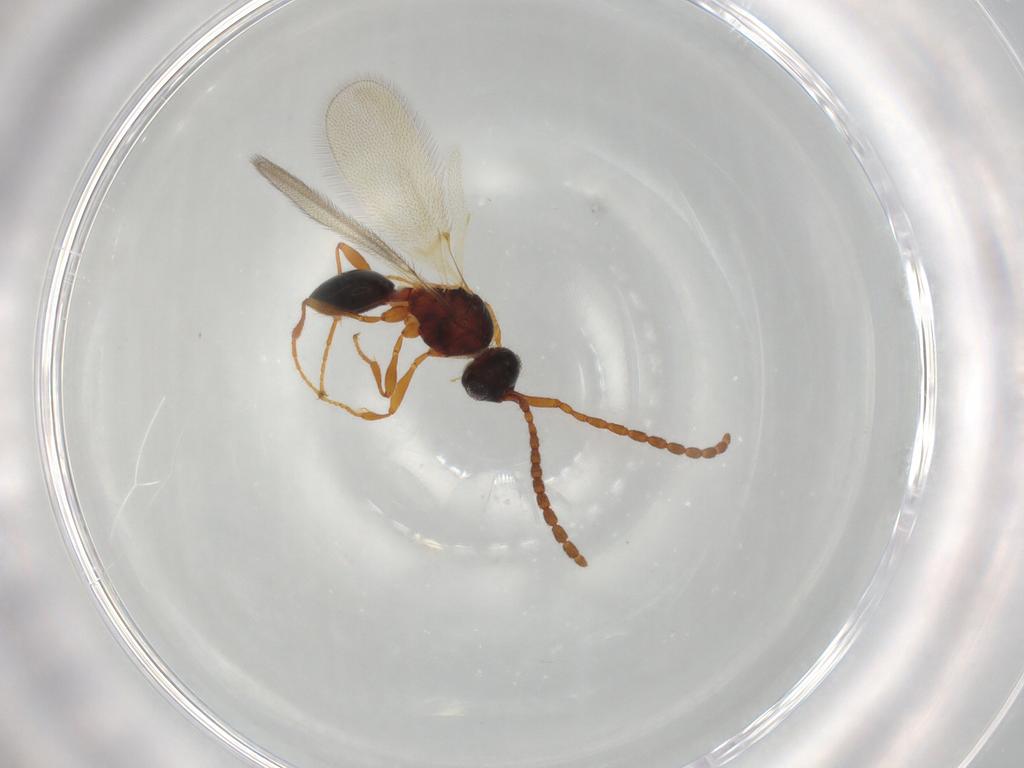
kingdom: Animalia
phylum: Arthropoda
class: Insecta
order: Hymenoptera
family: Diapriidae
